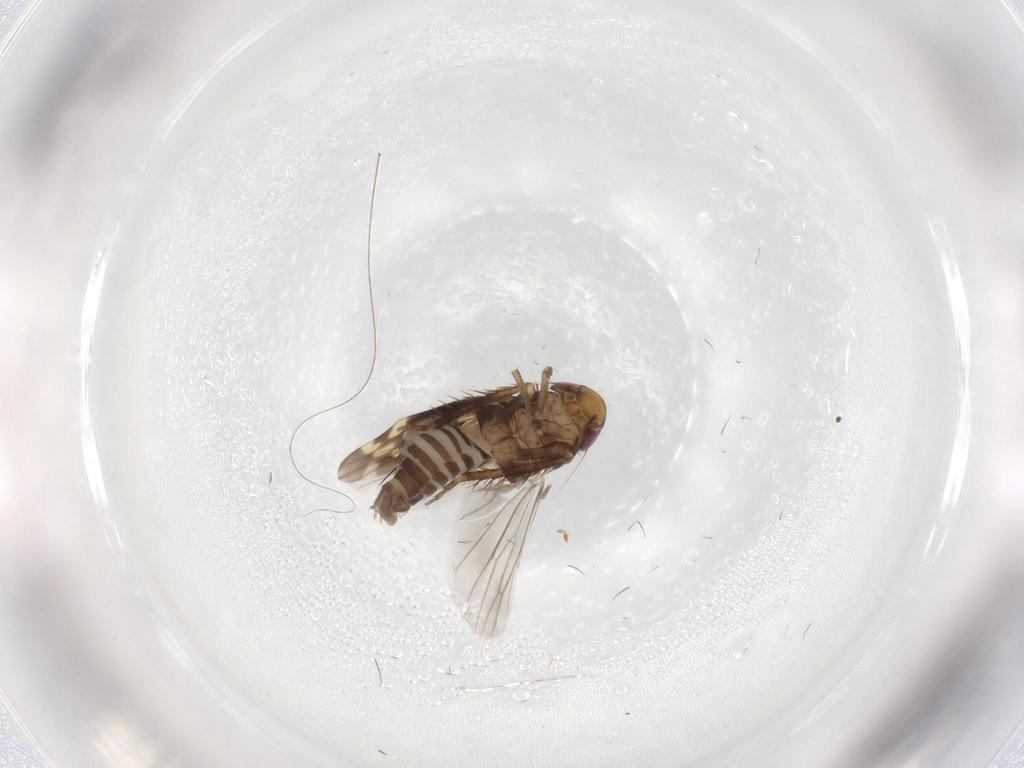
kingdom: Animalia
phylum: Arthropoda
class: Insecta
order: Hemiptera
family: Cicadellidae
